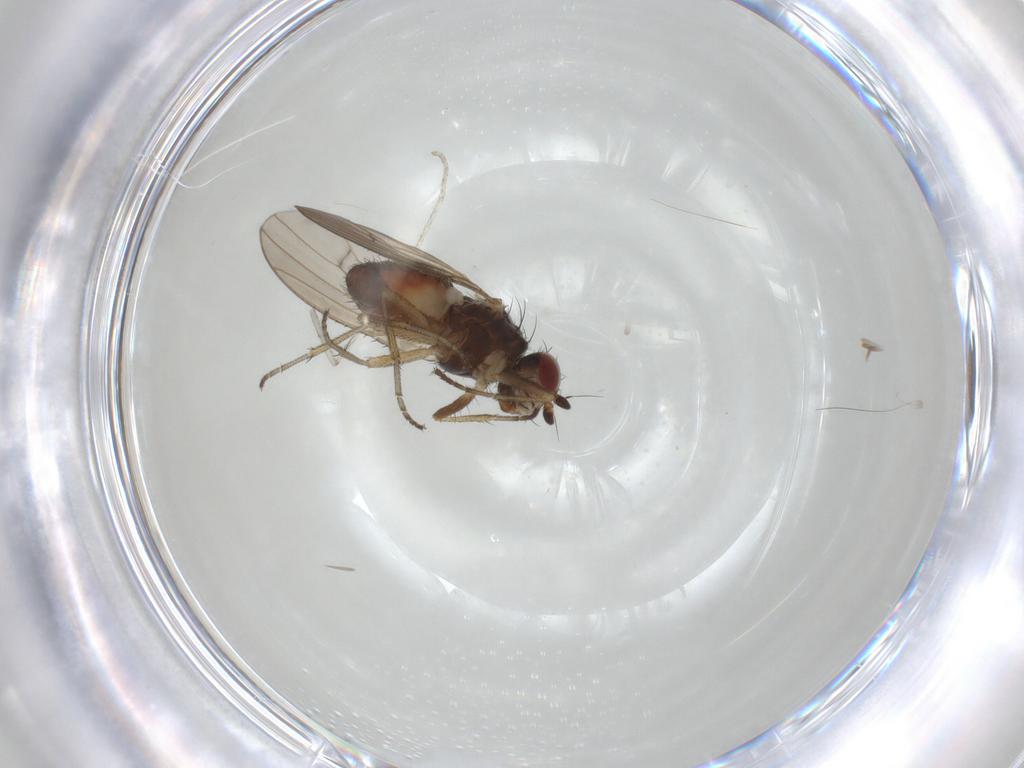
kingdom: Animalia
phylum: Arthropoda
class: Insecta
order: Diptera
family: Heleomyzidae
